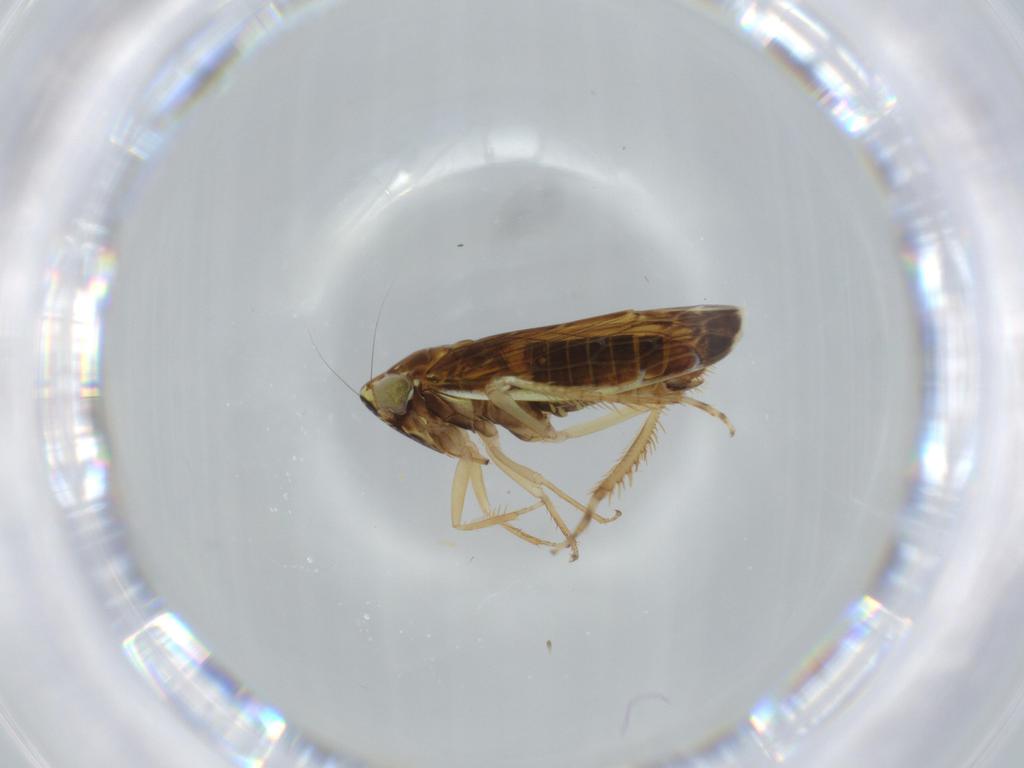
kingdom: Animalia
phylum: Arthropoda
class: Insecta
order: Hemiptera
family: Cicadellidae
